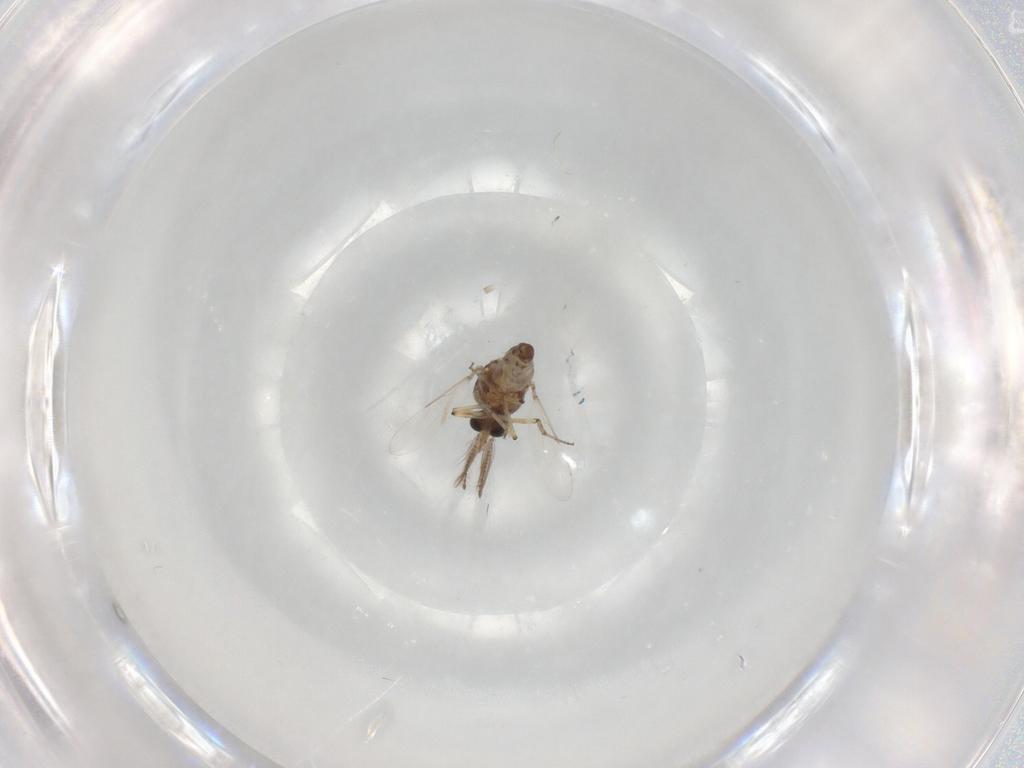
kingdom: Animalia
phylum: Arthropoda
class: Insecta
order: Diptera
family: Ceratopogonidae
